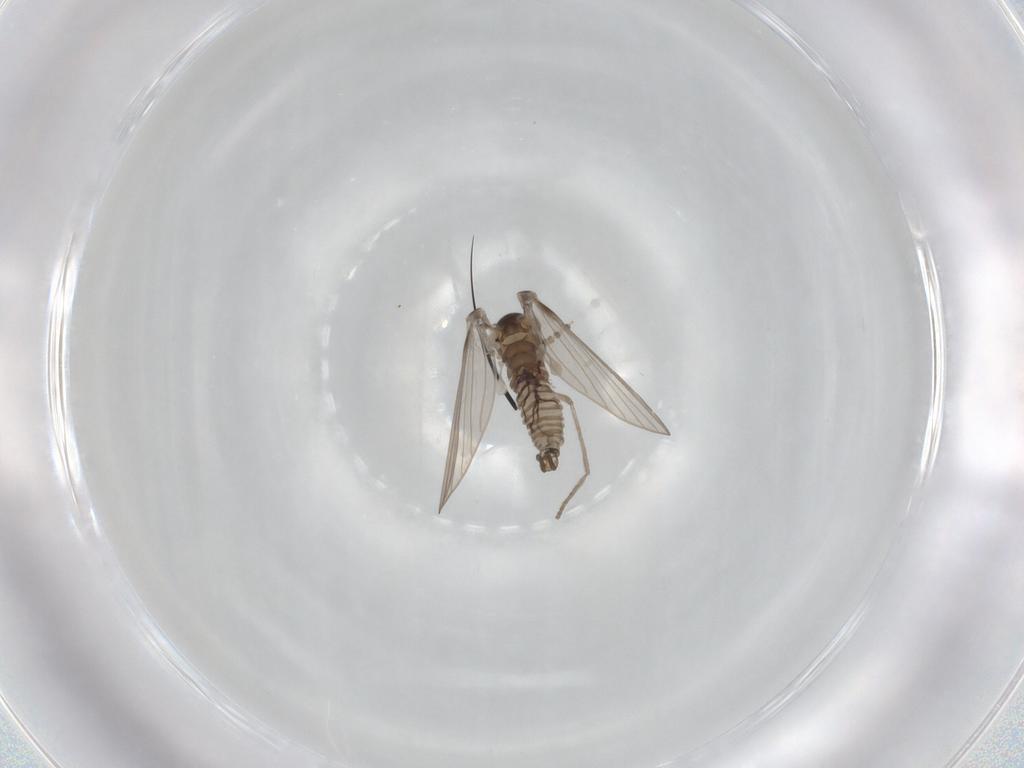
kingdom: Animalia
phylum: Arthropoda
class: Insecta
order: Diptera
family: Psychodidae
